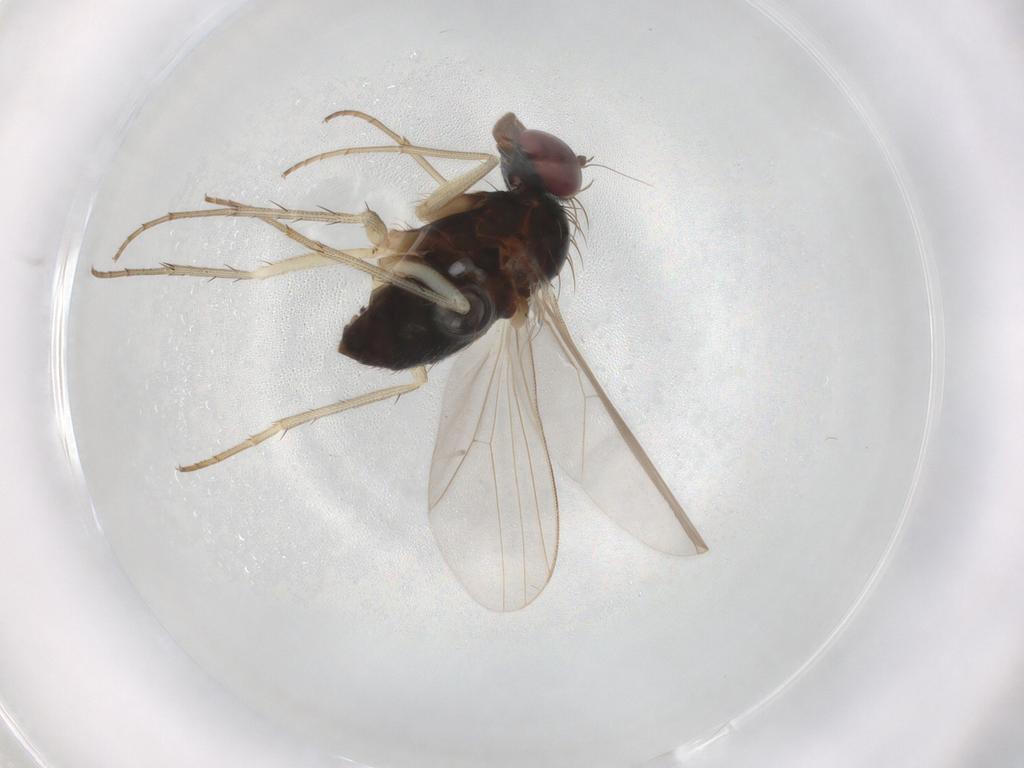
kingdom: Animalia
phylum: Arthropoda
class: Insecta
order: Diptera
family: Dolichopodidae
